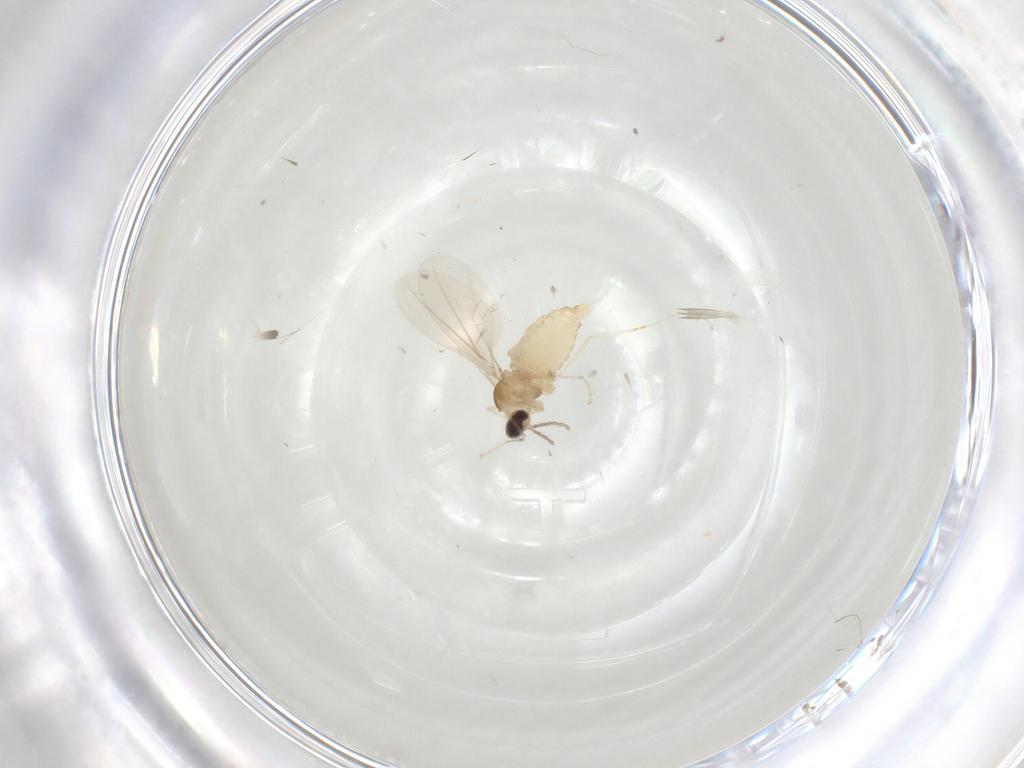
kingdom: Animalia
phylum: Arthropoda
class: Insecta
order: Diptera
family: Cecidomyiidae
